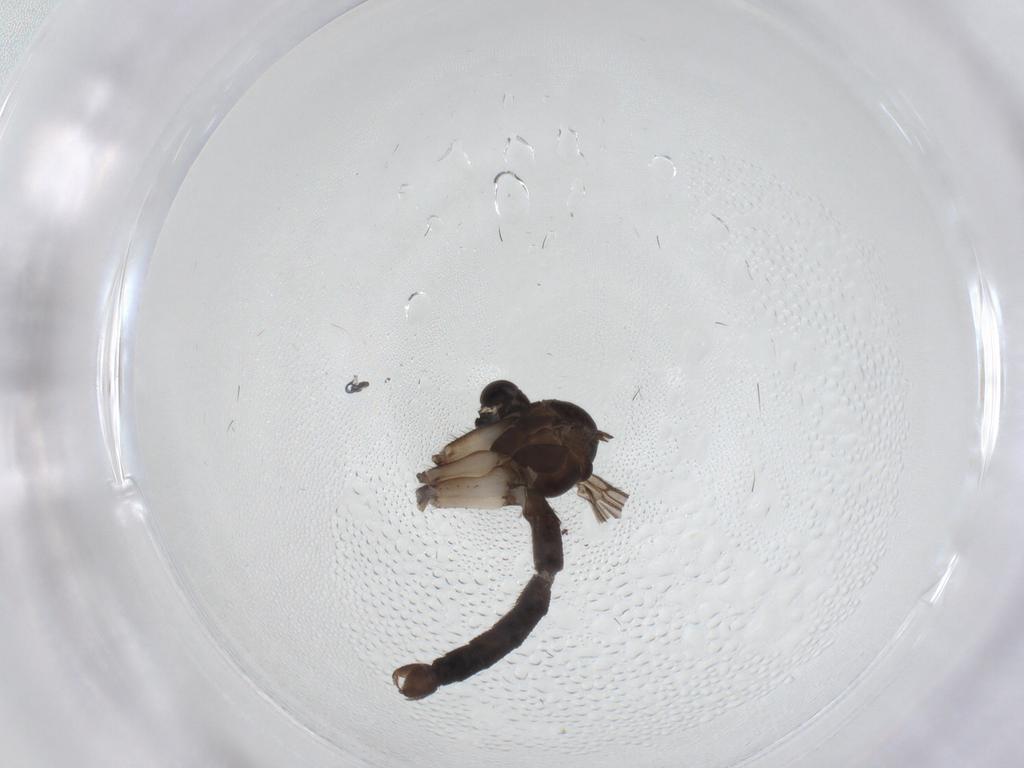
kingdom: Animalia
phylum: Arthropoda
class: Insecta
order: Diptera
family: Mycetophilidae
